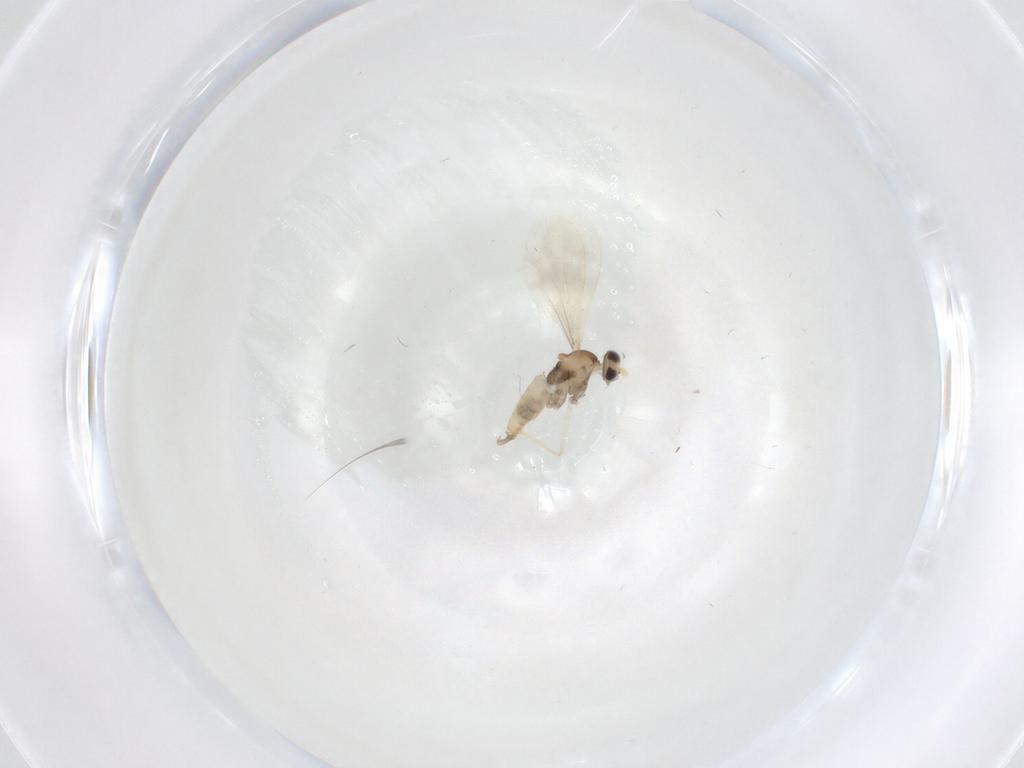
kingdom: Animalia
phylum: Arthropoda
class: Insecta
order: Diptera
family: Cecidomyiidae
